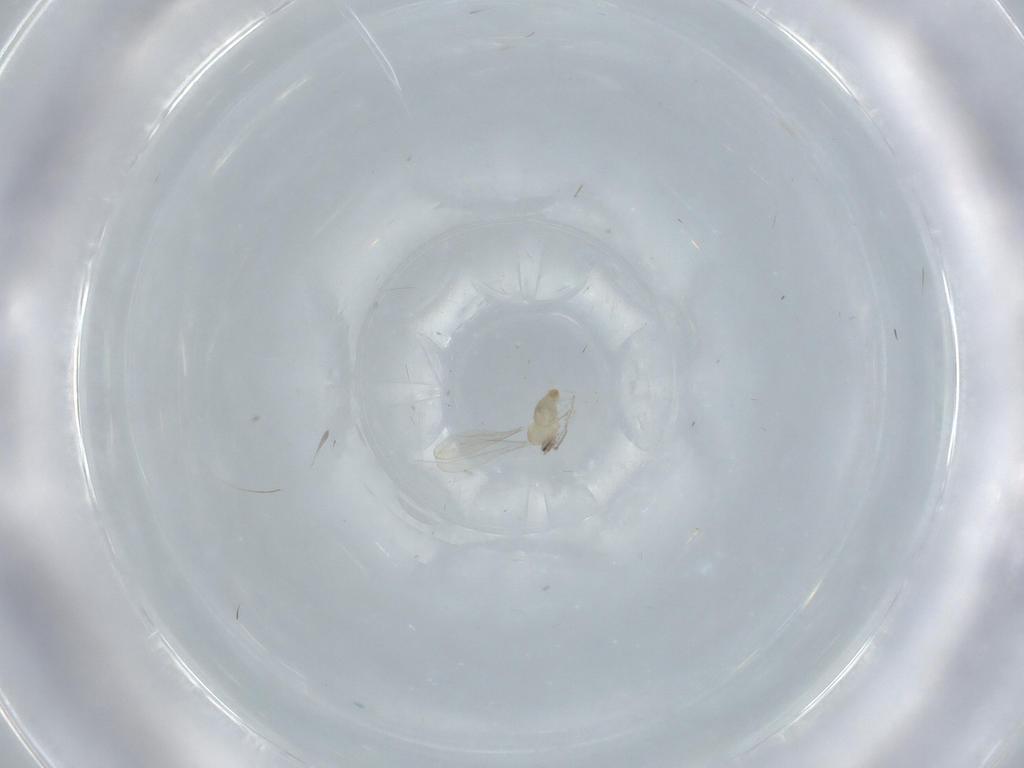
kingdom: Animalia
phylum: Arthropoda
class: Insecta
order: Diptera
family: Cecidomyiidae
